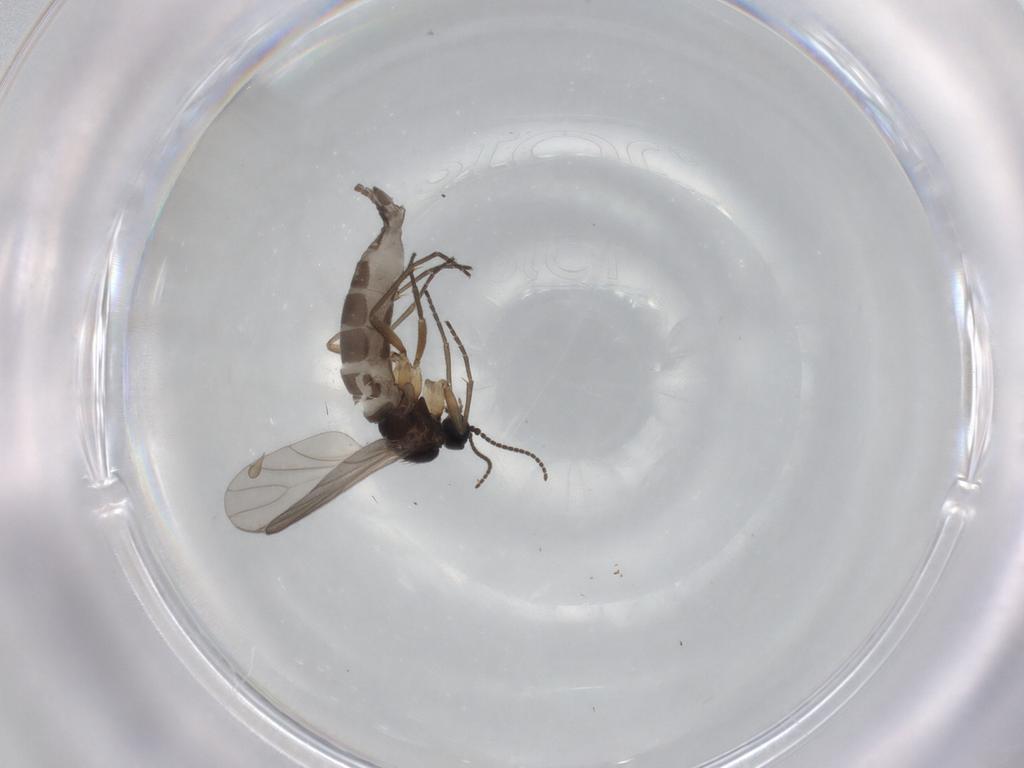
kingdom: Animalia
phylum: Arthropoda
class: Insecta
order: Diptera
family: Sciaridae
